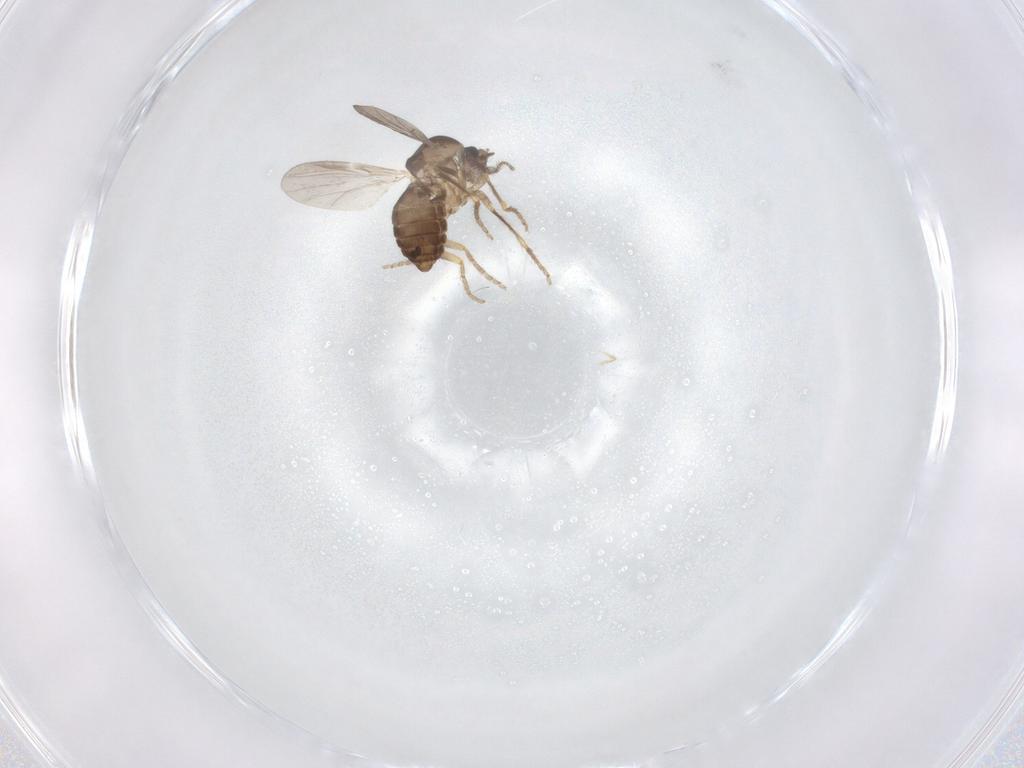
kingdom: Animalia
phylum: Arthropoda
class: Insecta
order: Diptera
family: Ceratopogonidae
